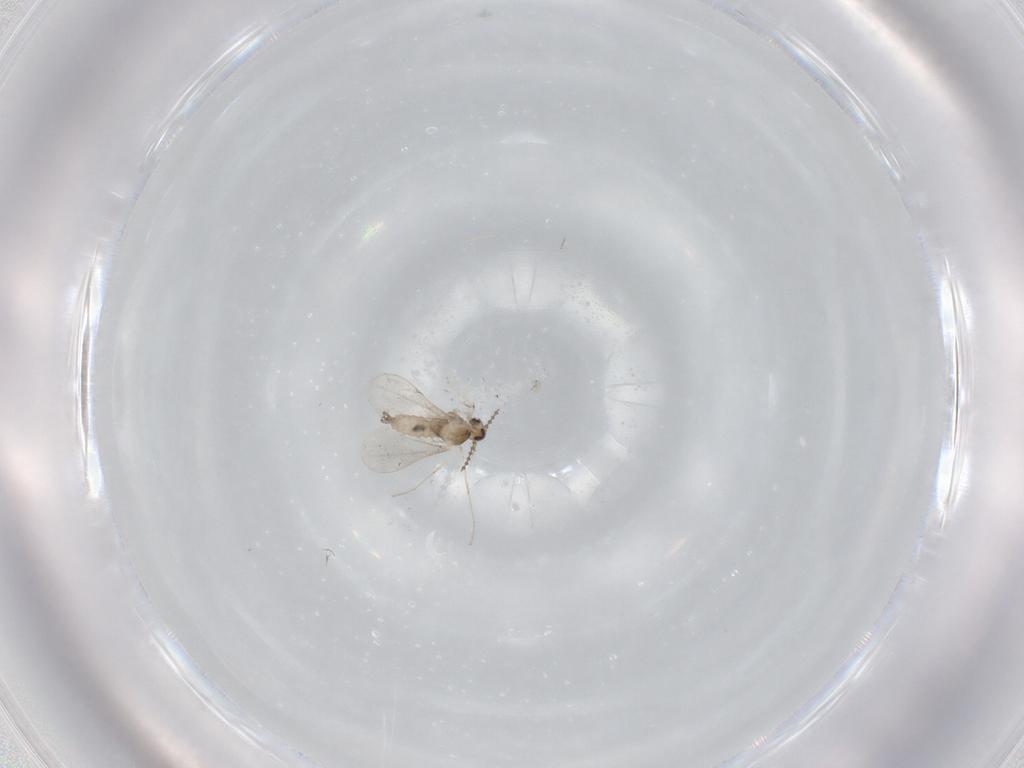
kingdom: Animalia
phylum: Arthropoda
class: Insecta
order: Diptera
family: Cecidomyiidae
